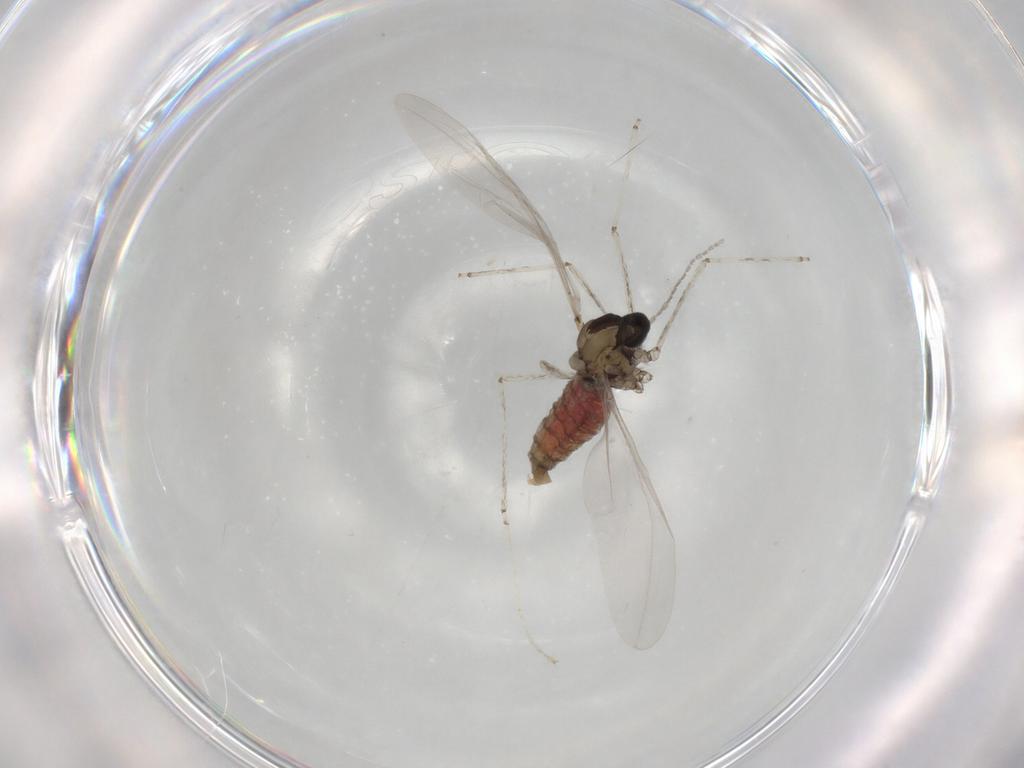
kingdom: Animalia
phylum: Arthropoda
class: Insecta
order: Diptera
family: Cecidomyiidae
